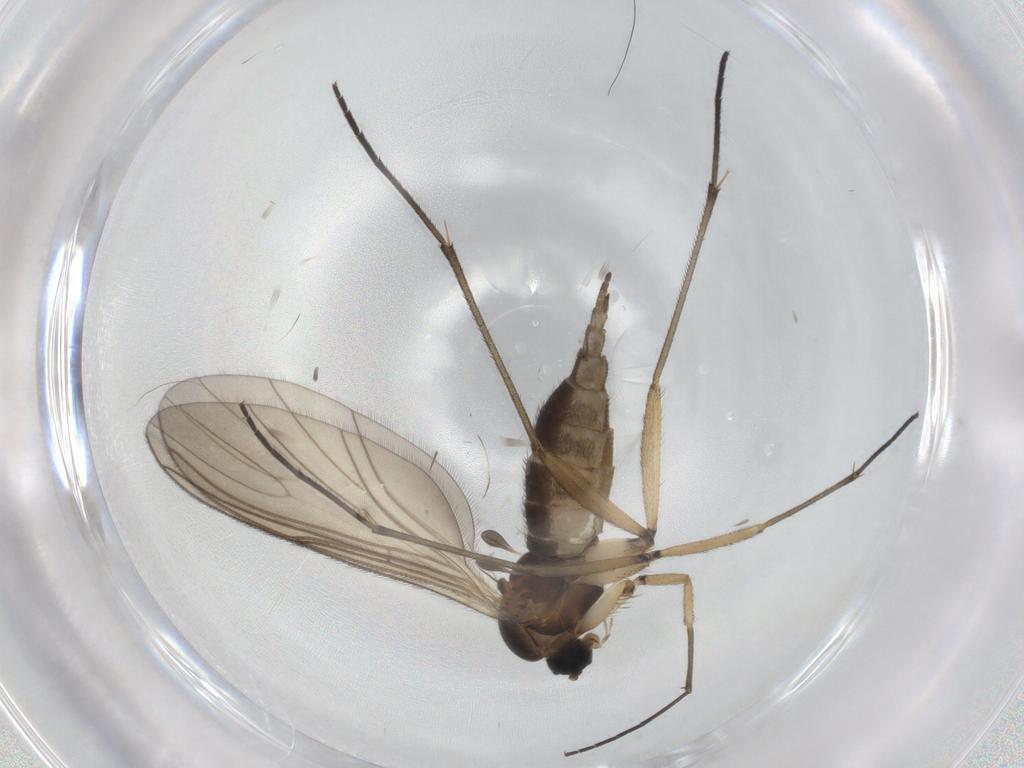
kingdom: Animalia
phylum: Arthropoda
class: Insecta
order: Diptera
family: Sciaridae
